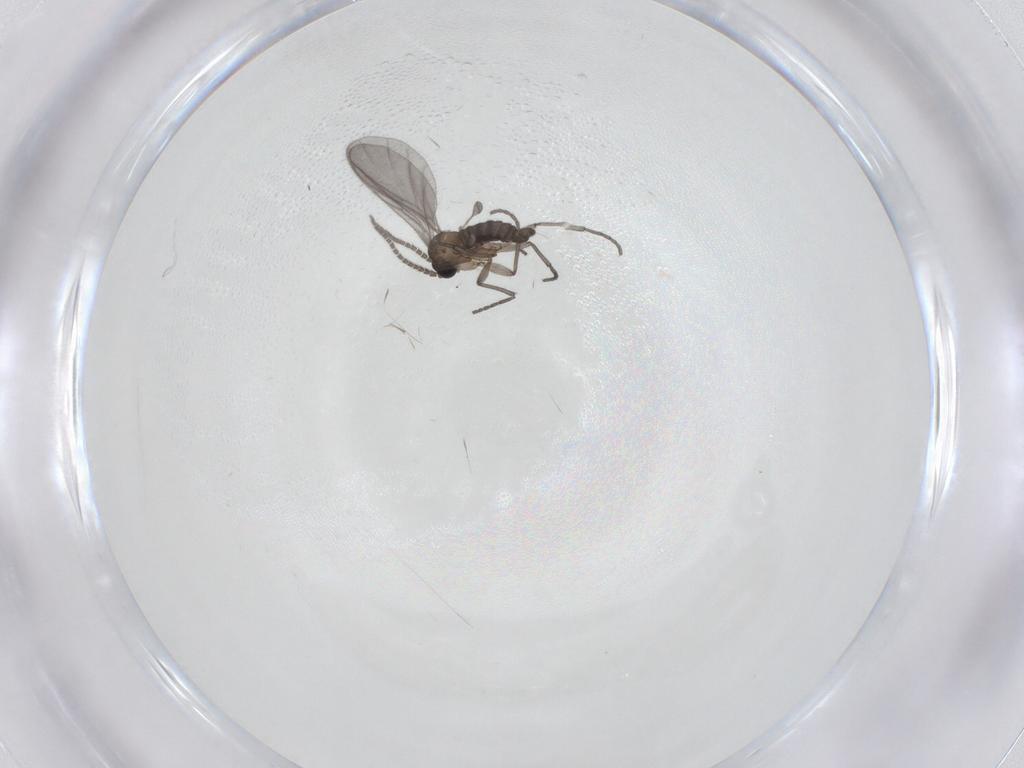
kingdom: Animalia
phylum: Arthropoda
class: Insecta
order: Diptera
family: Sciaridae
